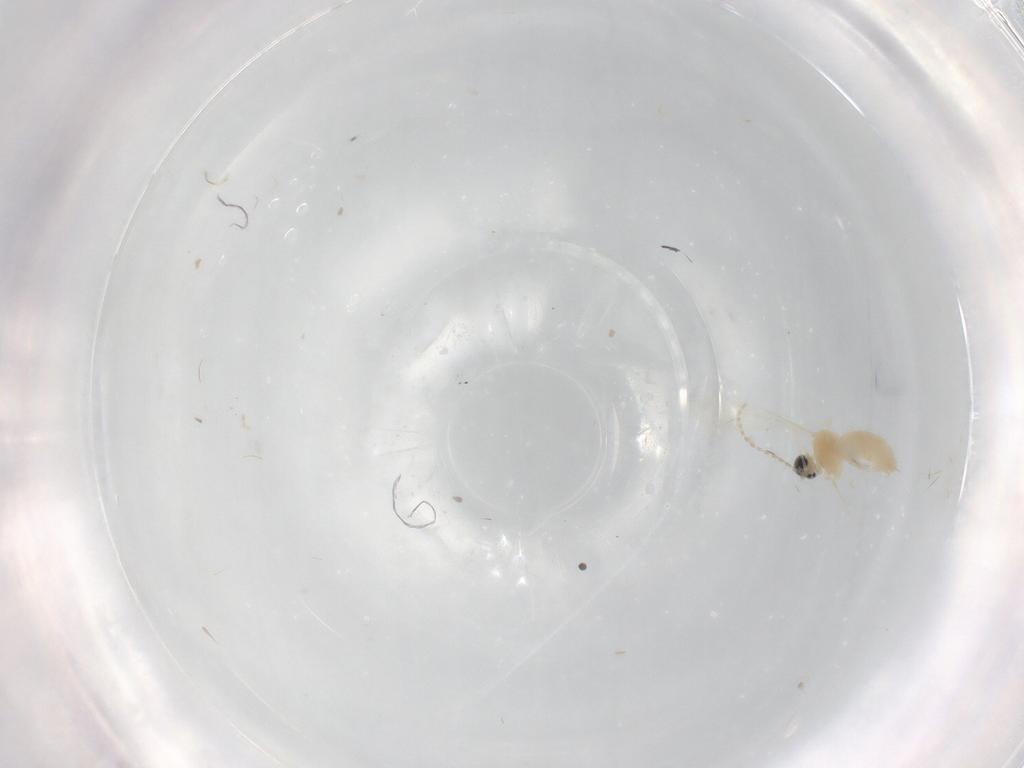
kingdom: Animalia
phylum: Arthropoda
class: Insecta
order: Diptera
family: Cecidomyiidae
